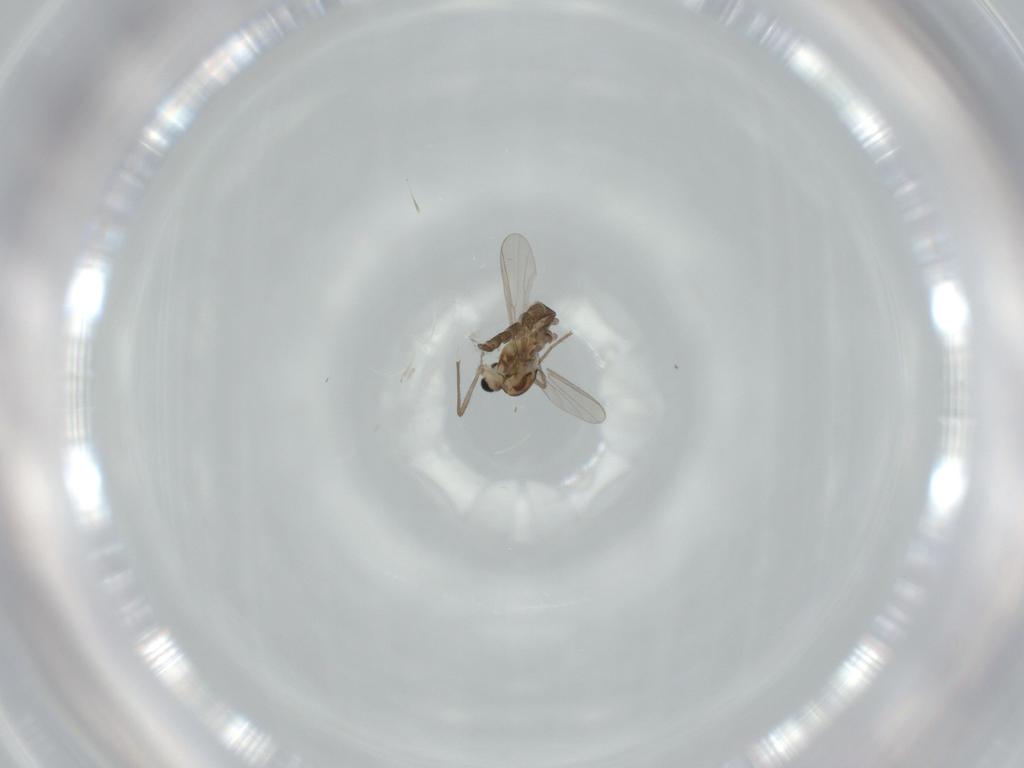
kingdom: Animalia
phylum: Arthropoda
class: Insecta
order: Diptera
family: Chironomidae
